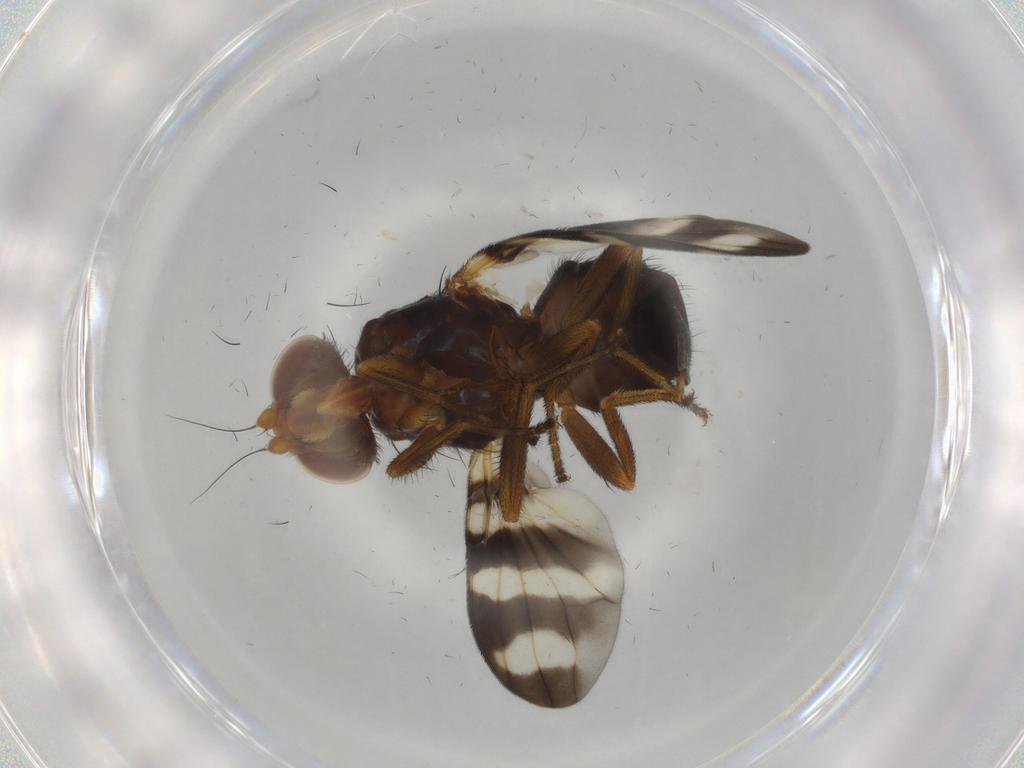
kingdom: Animalia
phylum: Arthropoda
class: Insecta
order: Diptera
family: Ulidiidae
